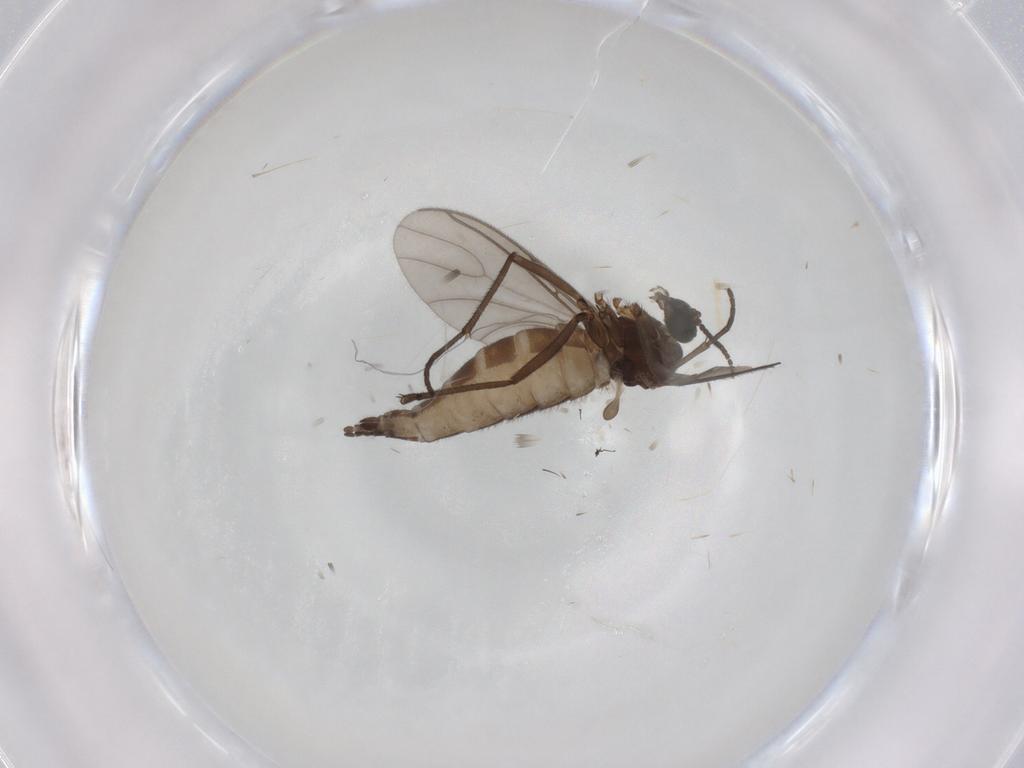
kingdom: Animalia
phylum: Arthropoda
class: Insecta
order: Diptera
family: Sciaridae
